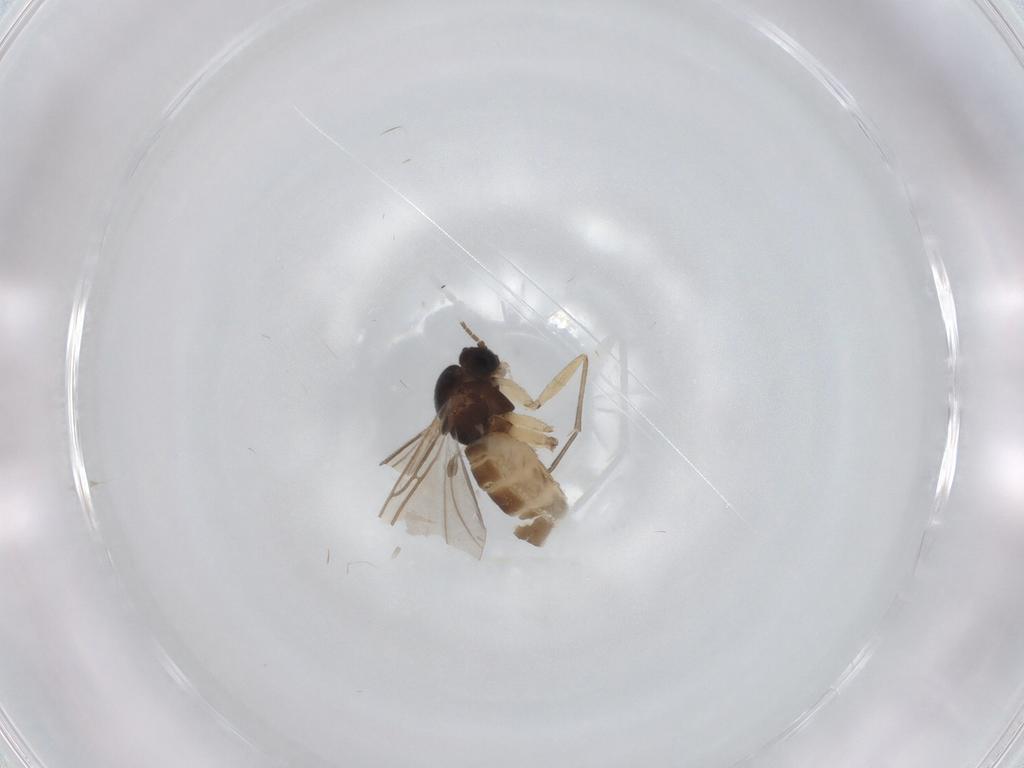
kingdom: Animalia
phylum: Arthropoda
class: Insecta
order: Diptera
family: Sciaridae
